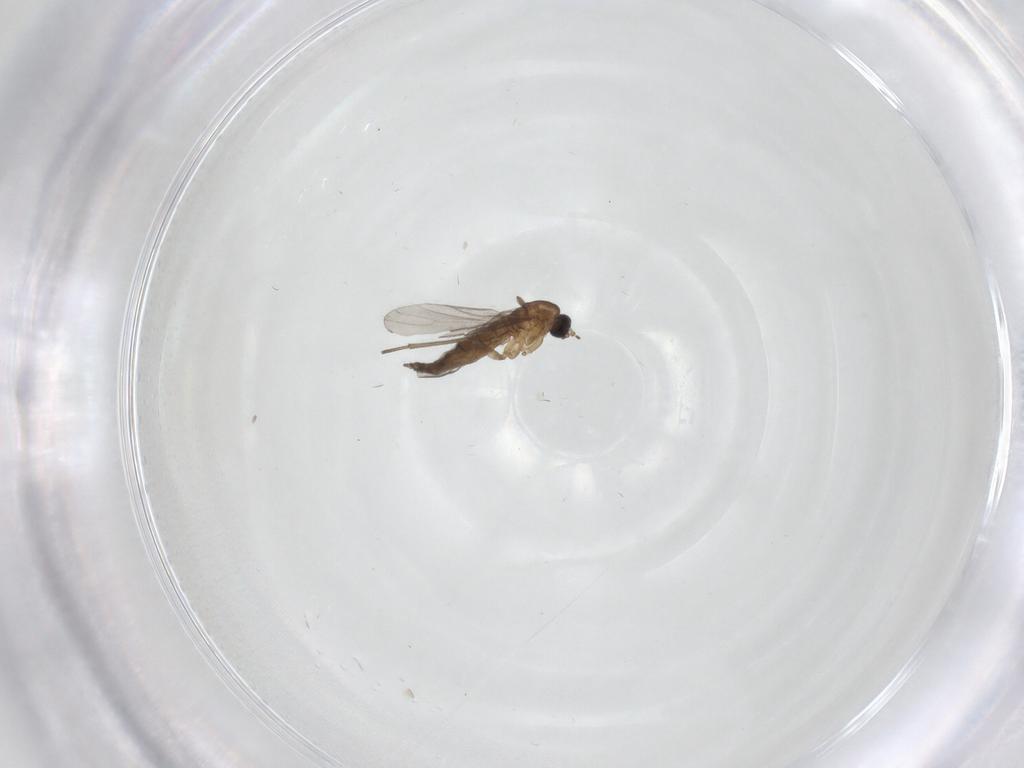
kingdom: Animalia
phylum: Arthropoda
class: Insecta
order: Diptera
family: Sciaridae
